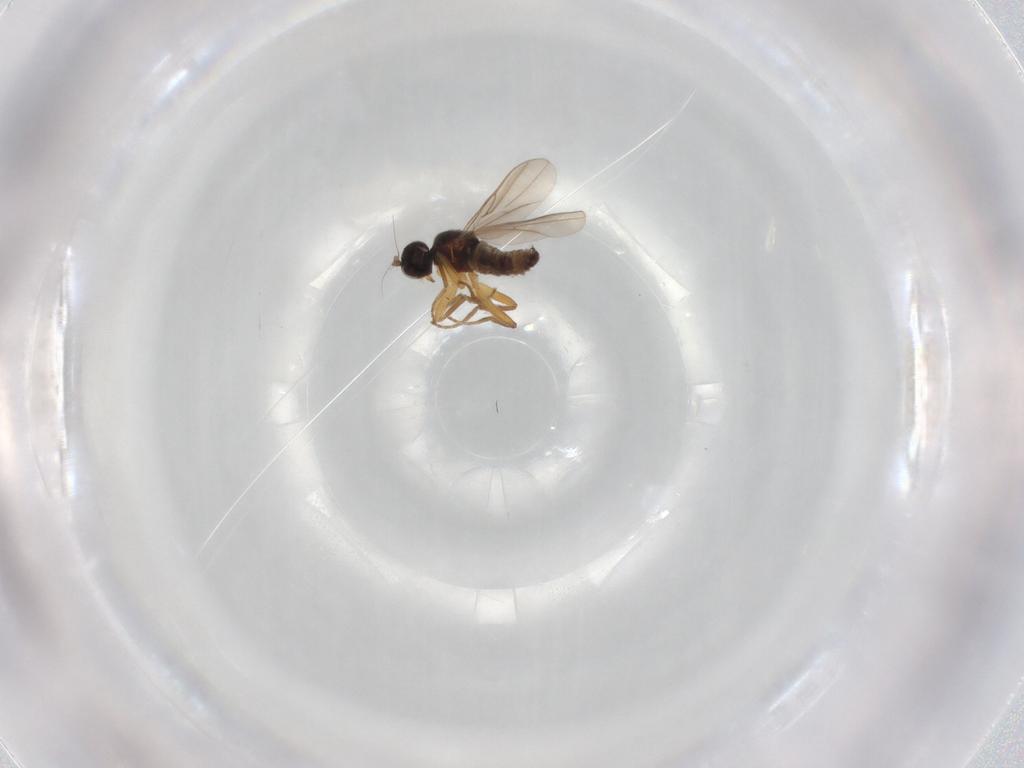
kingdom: Animalia
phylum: Arthropoda
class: Insecta
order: Diptera
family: Hybotidae
